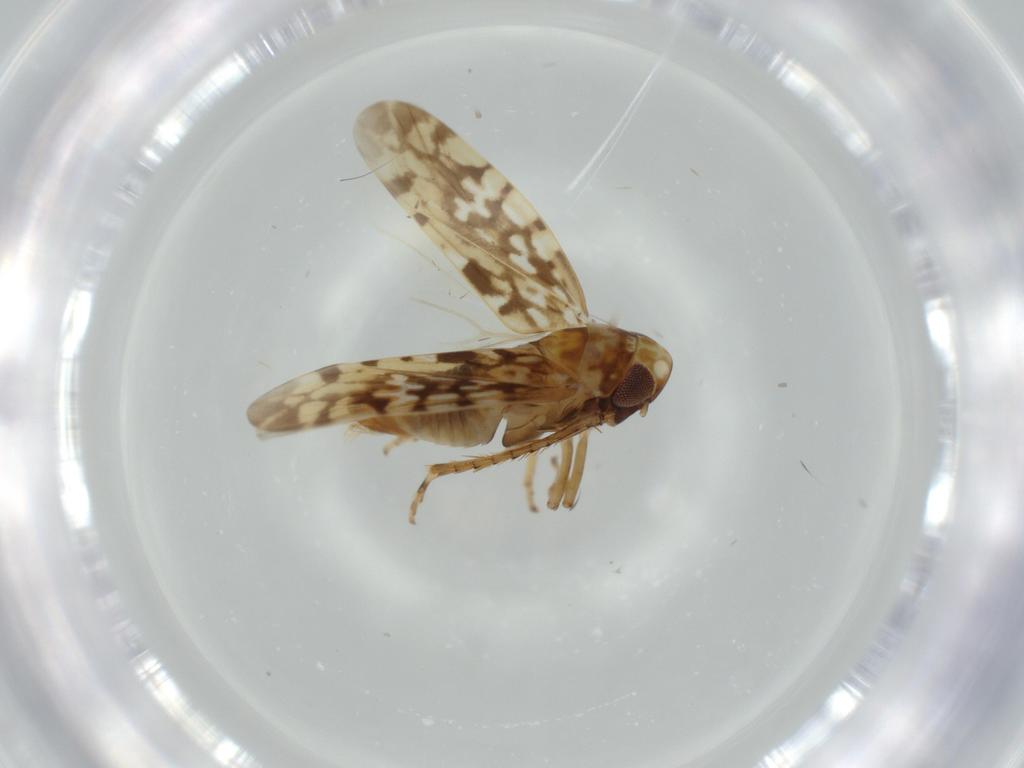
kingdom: Animalia
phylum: Arthropoda
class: Insecta
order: Hemiptera
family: Cicadellidae
